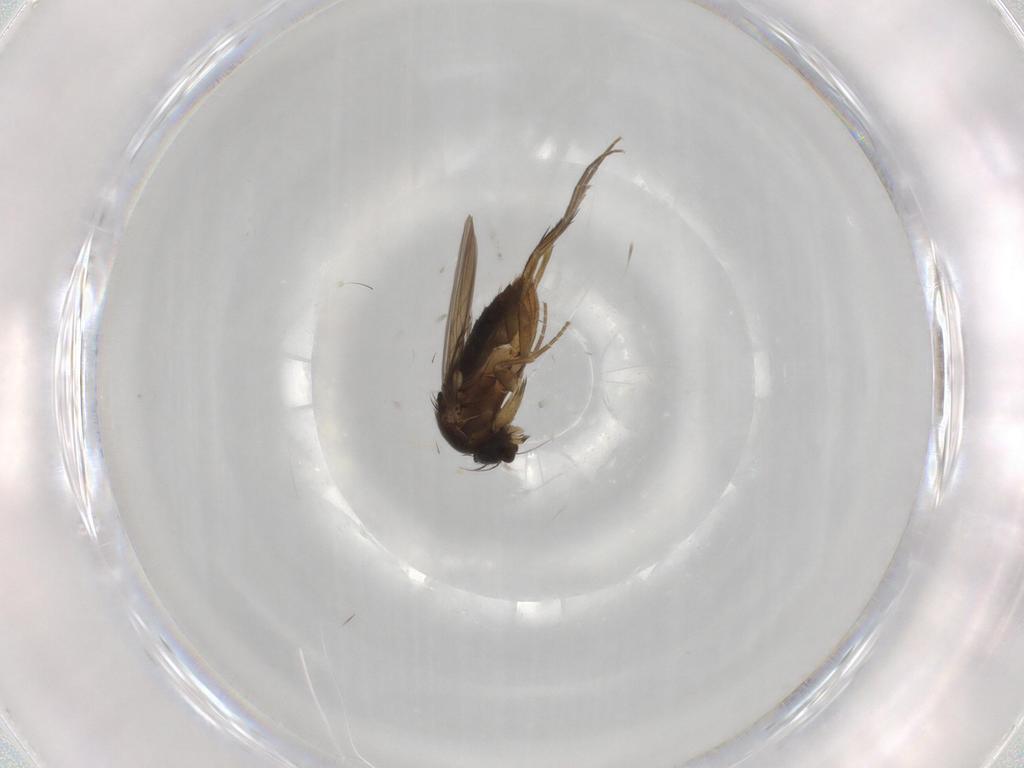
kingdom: Animalia
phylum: Arthropoda
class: Insecta
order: Diptera
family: Phoridae
